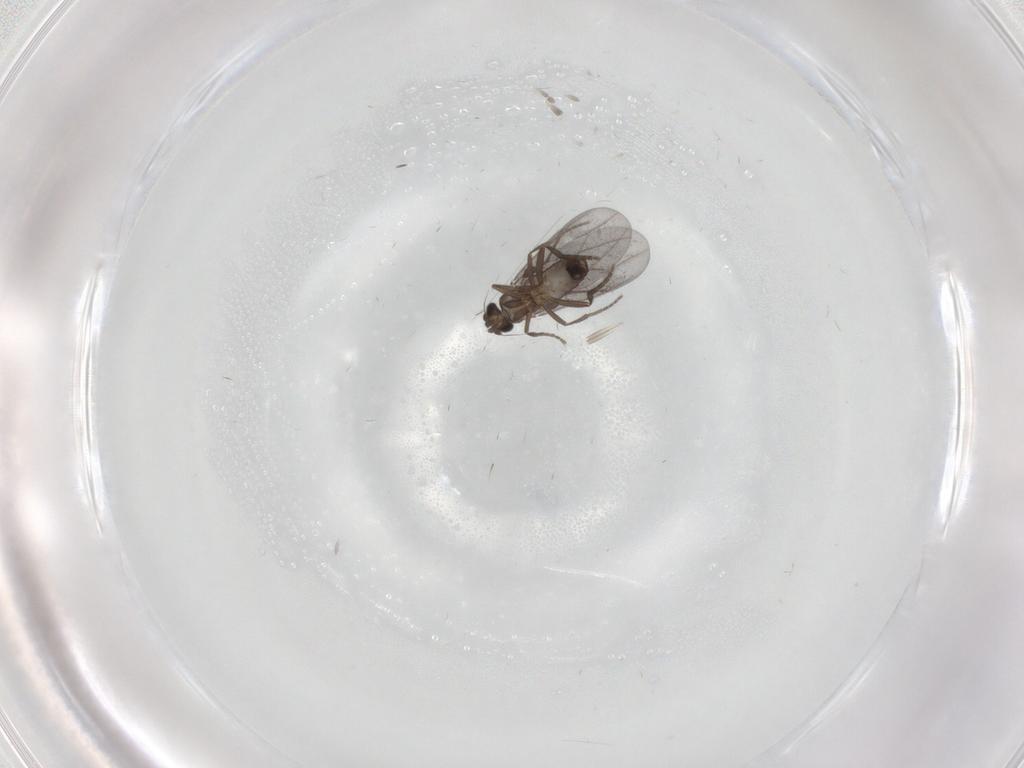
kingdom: Animalia
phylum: Arthropoda
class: Insecta
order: Diptera
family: Phoridae
